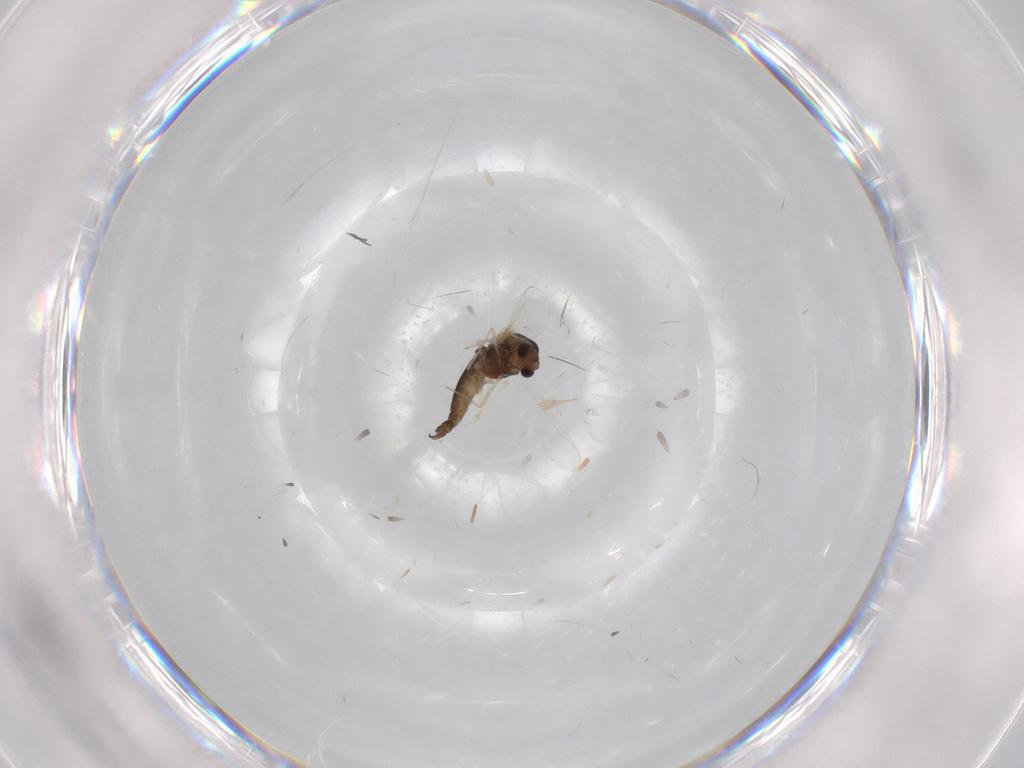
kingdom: Animalia
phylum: Arthropoda
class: Insecta
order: Diptera
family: Chironomidae
